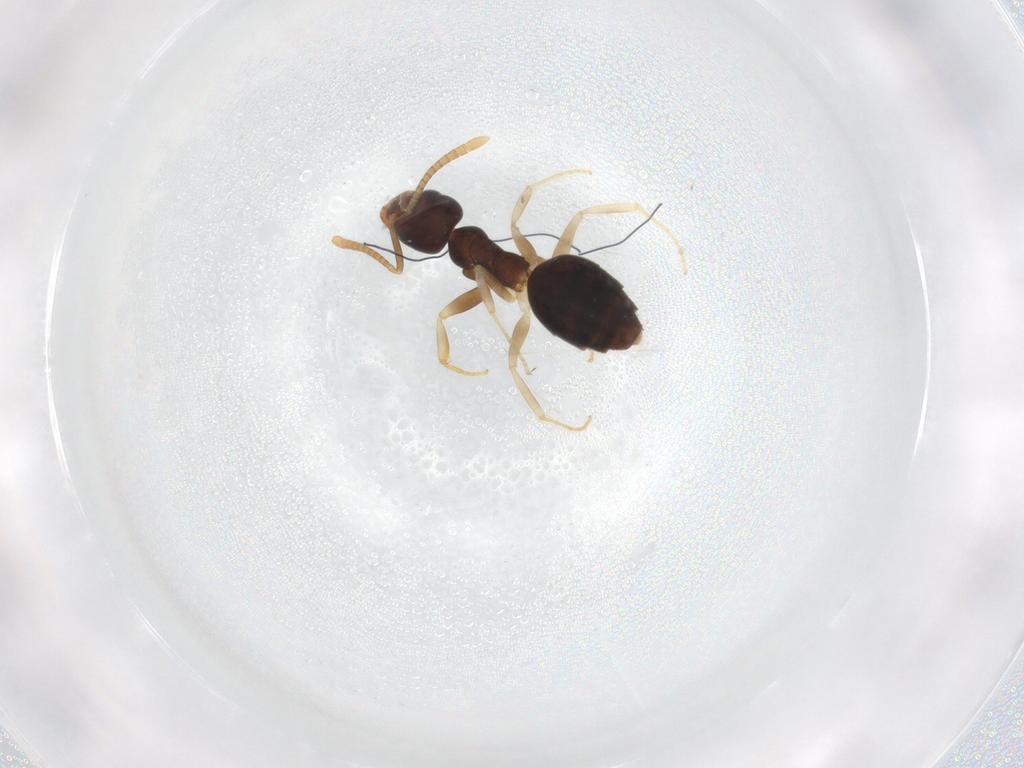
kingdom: Animalia
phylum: Arthropoda
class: Insecta
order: Hymenoptera
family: Formicidae
